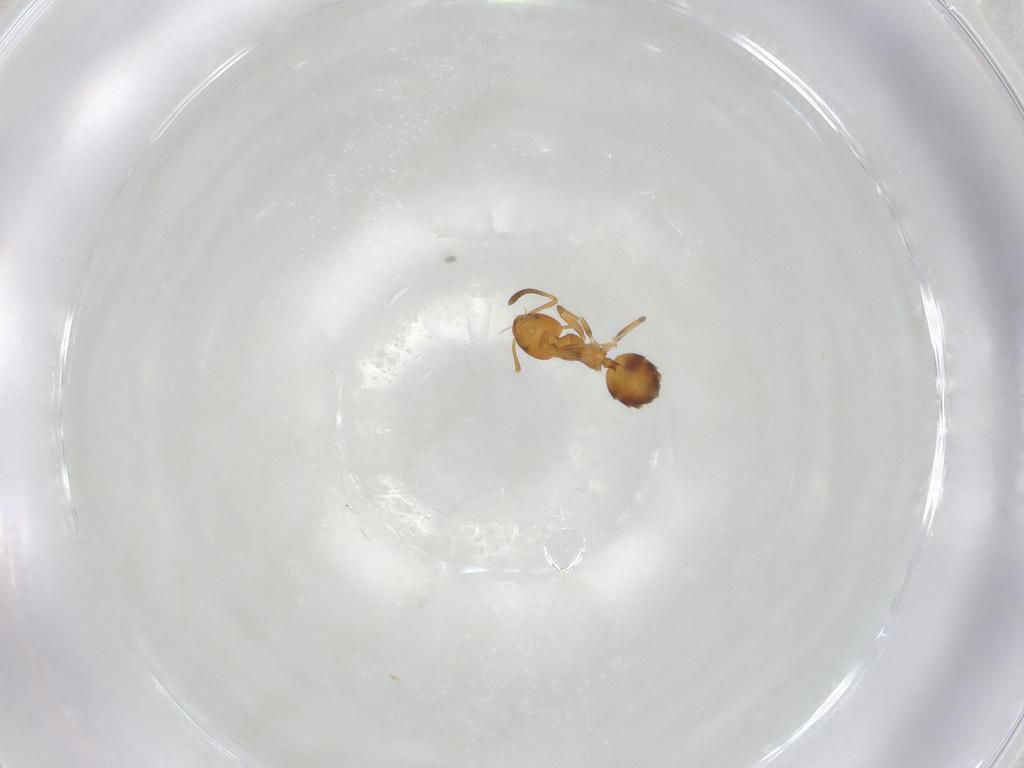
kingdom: Animalia
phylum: Arthropoda
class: Insecta
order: Hymenoptera
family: Formicidae
